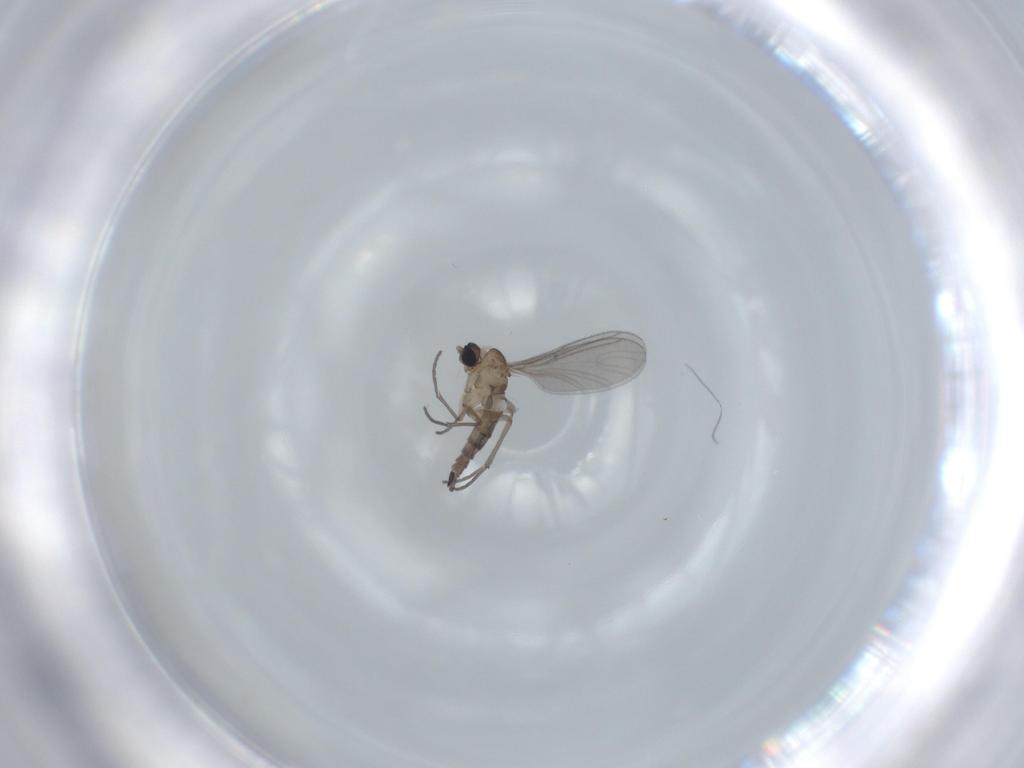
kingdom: Animalia
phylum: Arthropoda
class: Insecta
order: Diptera
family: Sciaridae
